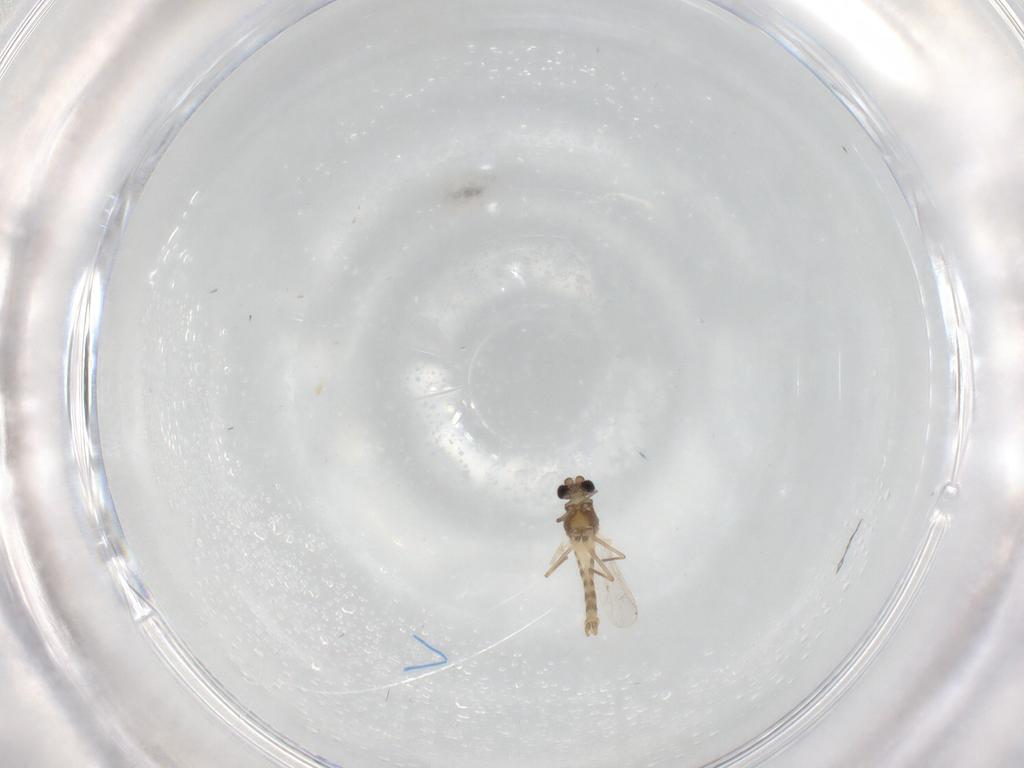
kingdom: Animalia
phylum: Arthropoda
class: Insecta
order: Diptera
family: Chironomidae
